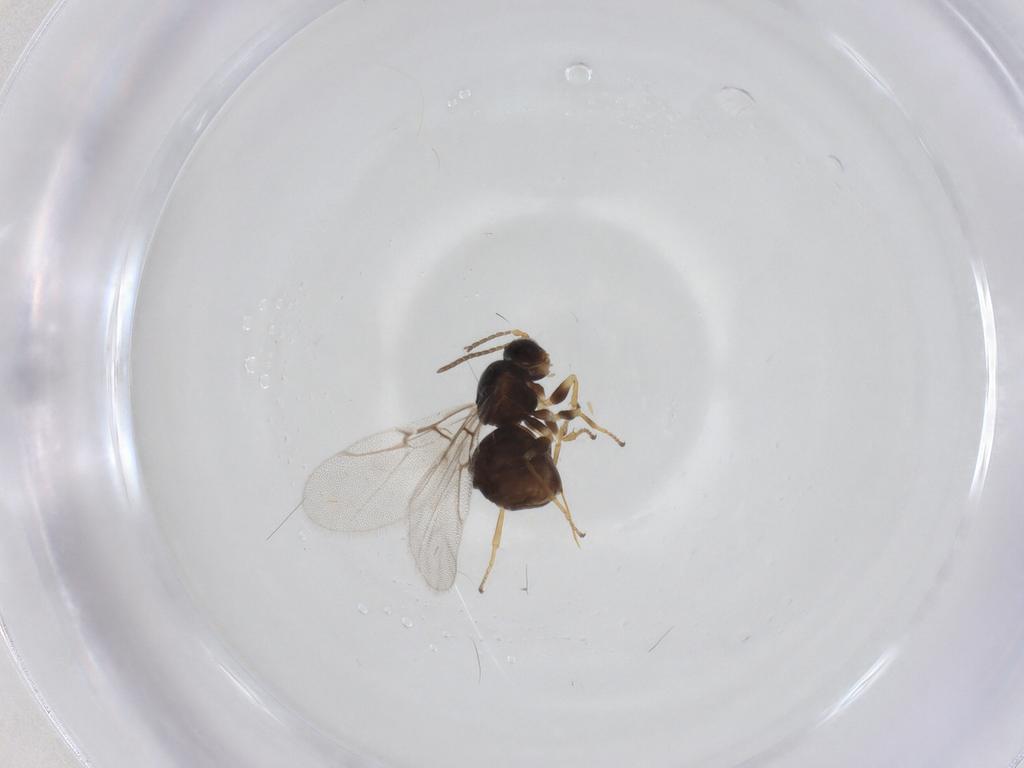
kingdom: Animalia
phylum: Arthropoda
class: Insecta
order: Hymenoptera
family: Cynipidae
